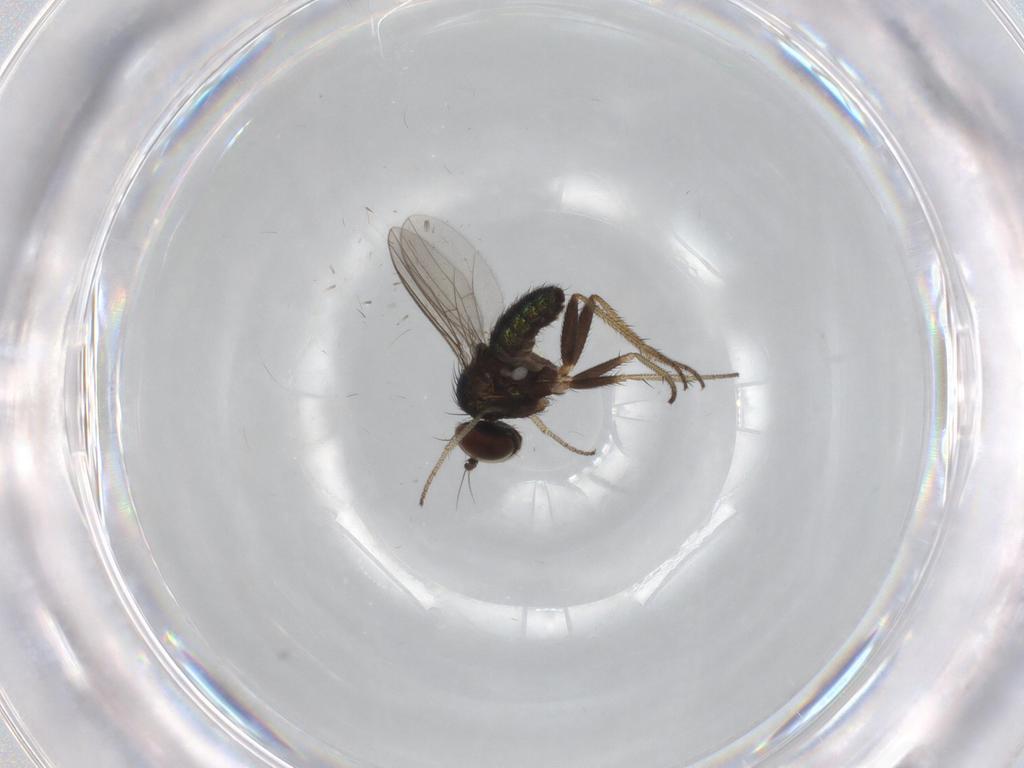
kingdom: Animalia
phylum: Arthropoda
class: Insecta
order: Diptera
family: Dolichopodidae
